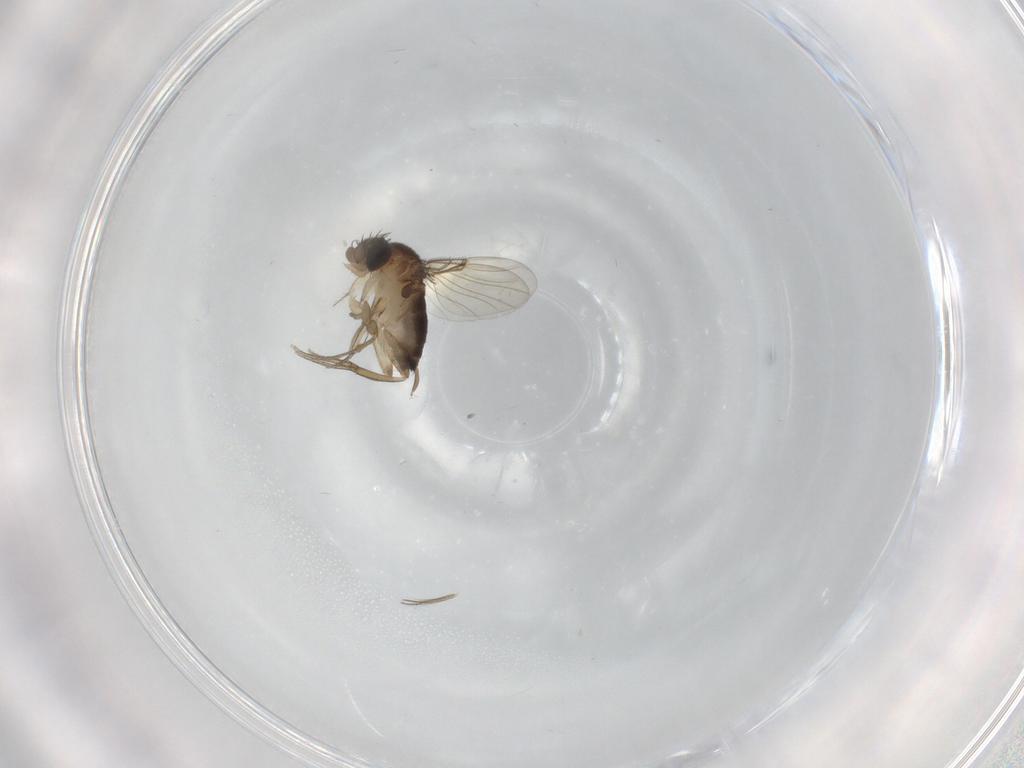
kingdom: Animalia
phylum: Arthropoda
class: Insecta
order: Diptera
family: Ceratopogonidae
